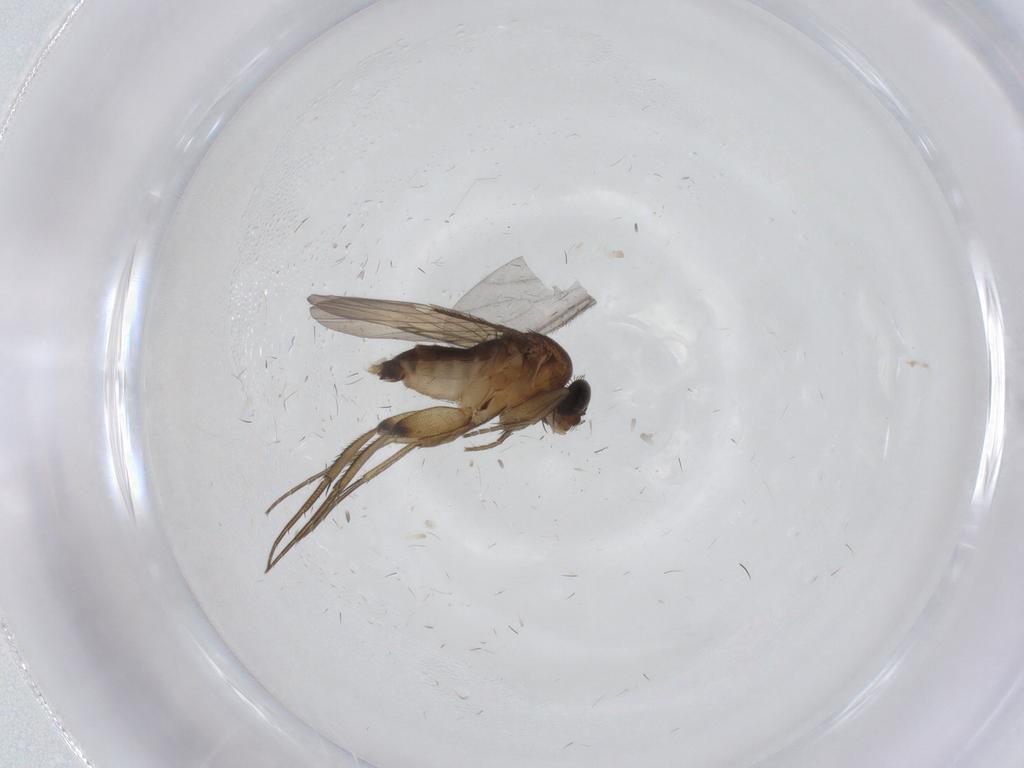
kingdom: Animalia
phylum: Arthropoda
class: Insecta
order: Diptera
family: Phoridae
